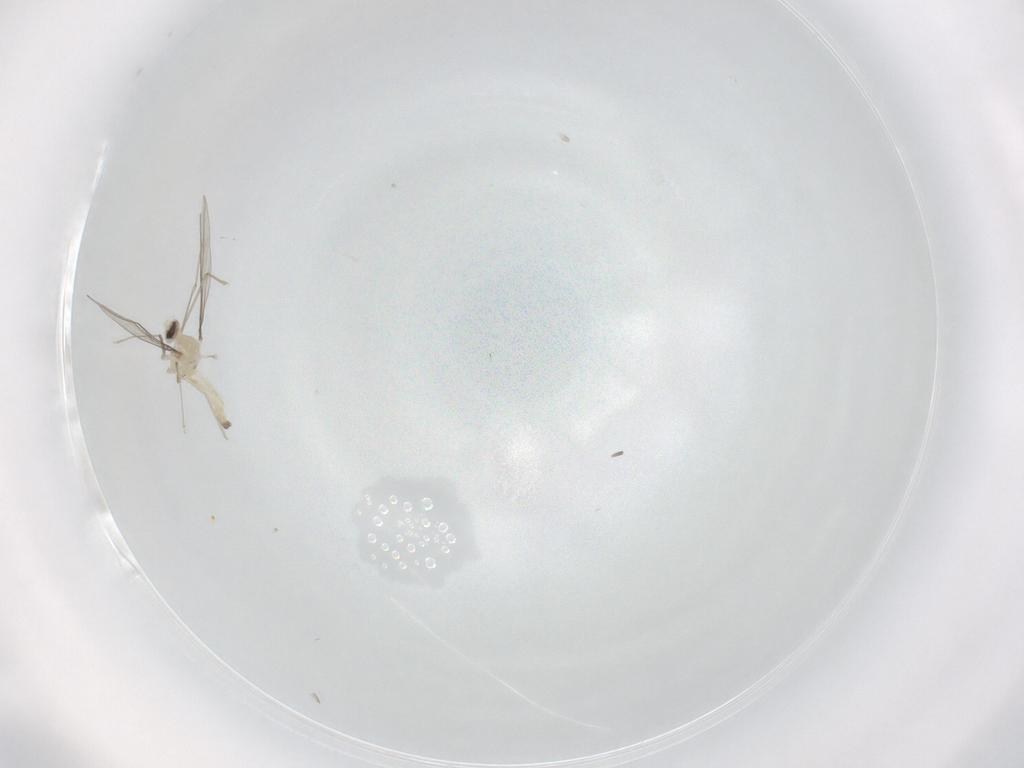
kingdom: Animalia
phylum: Arthropoda
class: Insecta
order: Diptera
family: Cecidomyiidae
